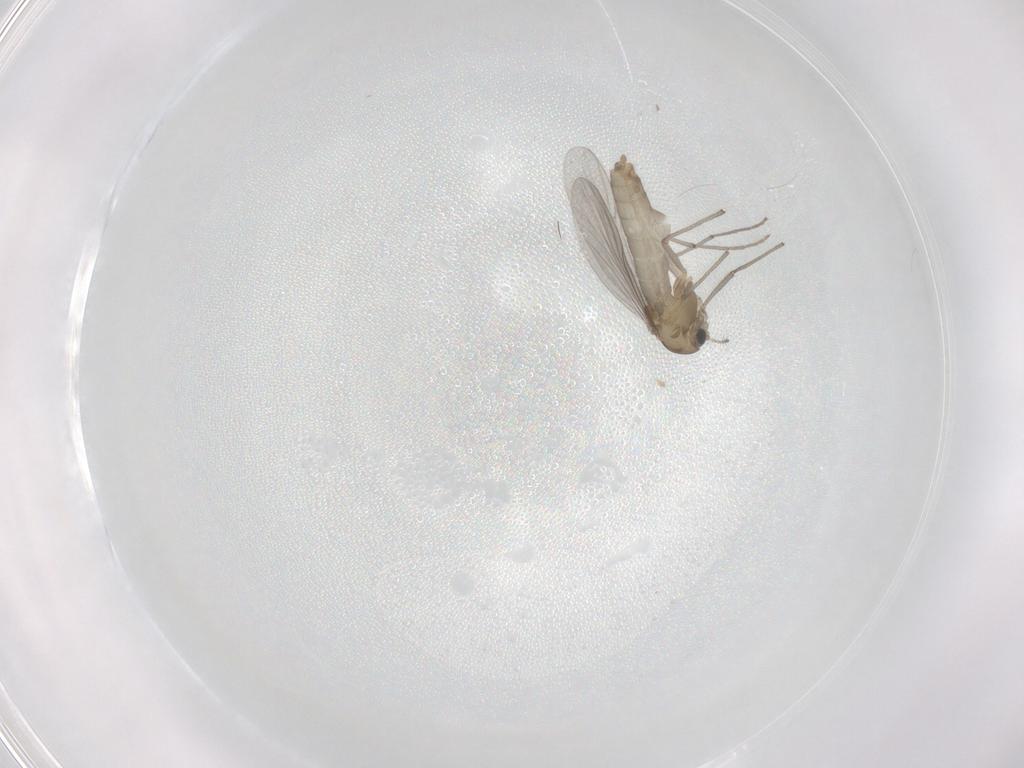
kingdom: Animalia
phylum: Arthropoda
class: Insecta
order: Diptera
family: Chironomidae
